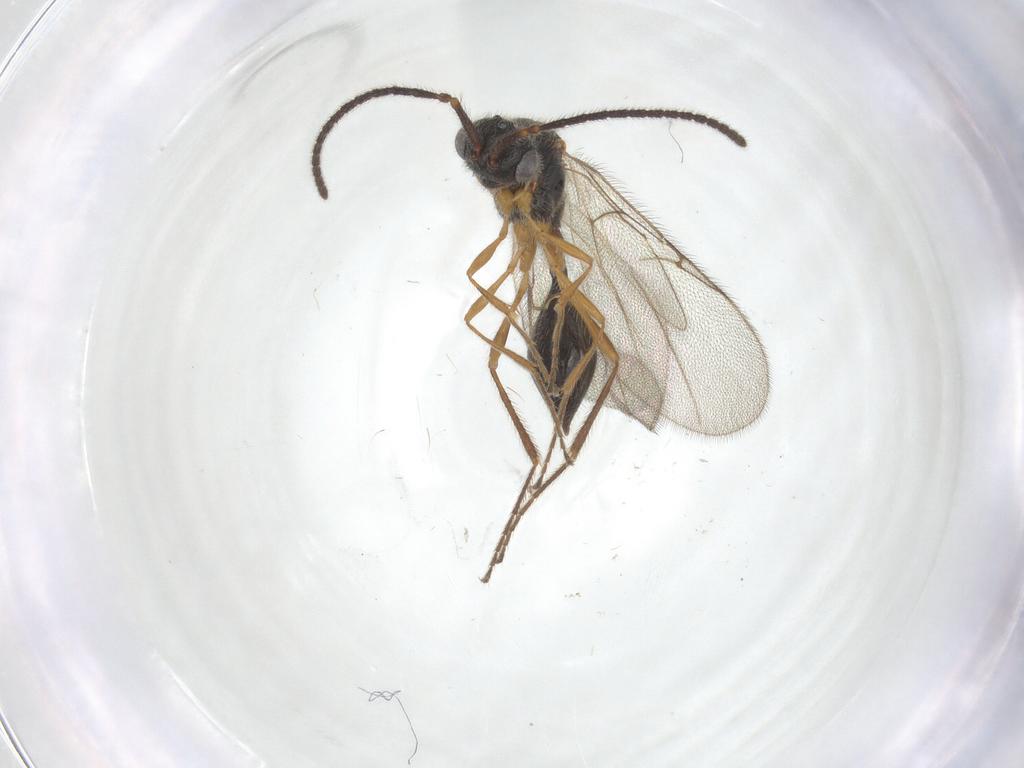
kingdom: Animalia
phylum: Arthropoda
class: Insecta
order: Hymenoptera
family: Diapriidae
